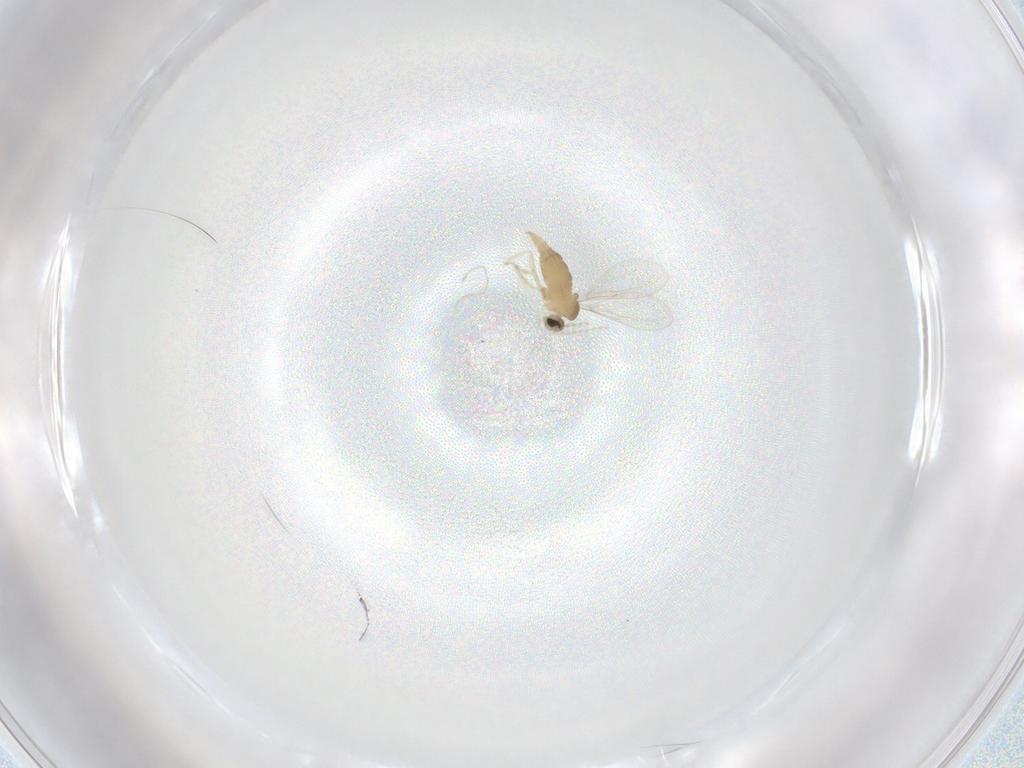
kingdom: Animalia
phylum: Arthropoda
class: Insecta
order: Diptera
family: Cecidomyiidae
